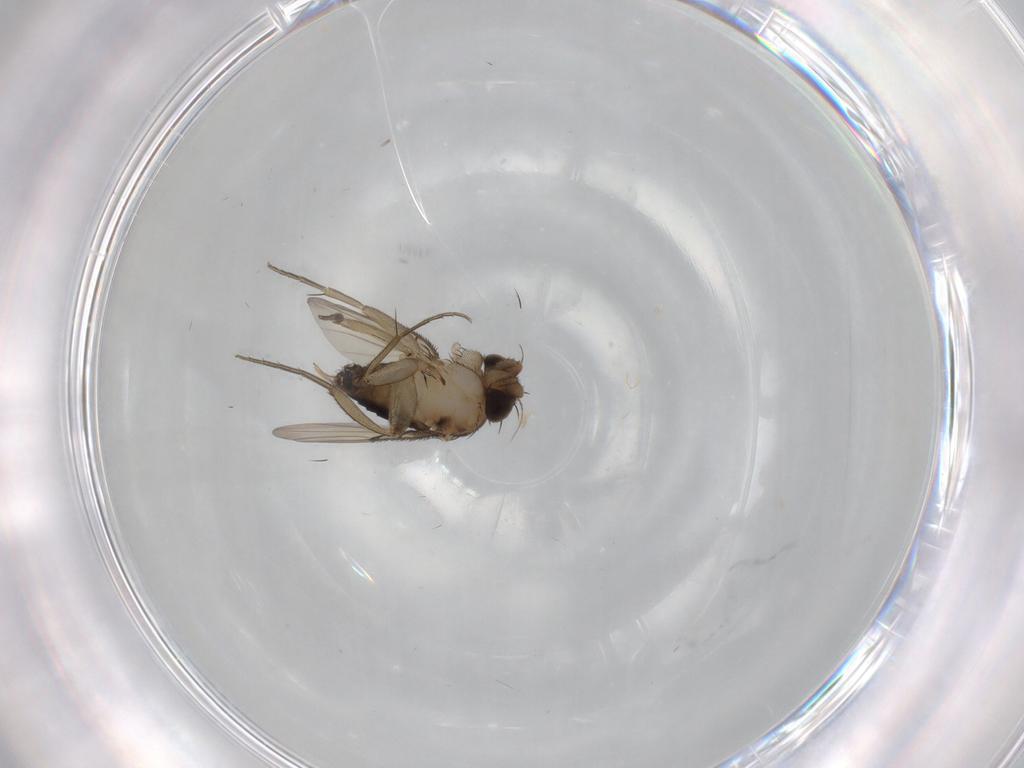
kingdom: Animalia
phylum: Arthropoda
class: Insecta
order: Diptera
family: Phoridae
